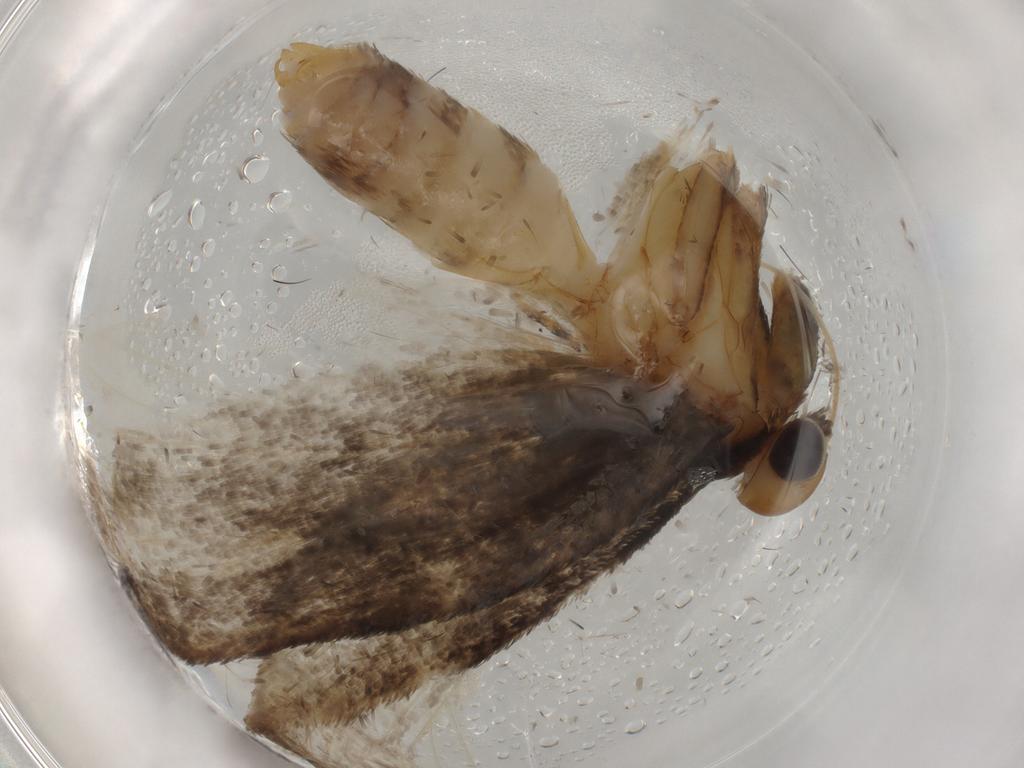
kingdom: Animalia
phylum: Arthropoda
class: Insecta
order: Lepidoptera
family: Oecophoridae
